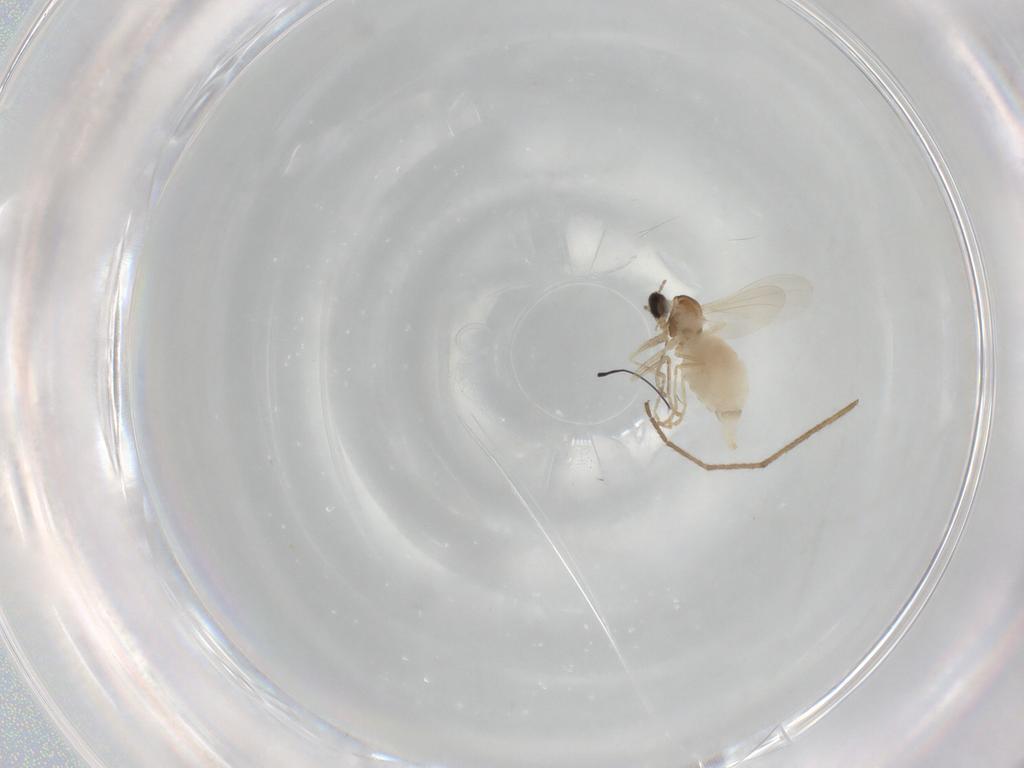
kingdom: Animalia
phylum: Arthropoda
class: Insecta
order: Diptera
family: Cecidomyiidae
